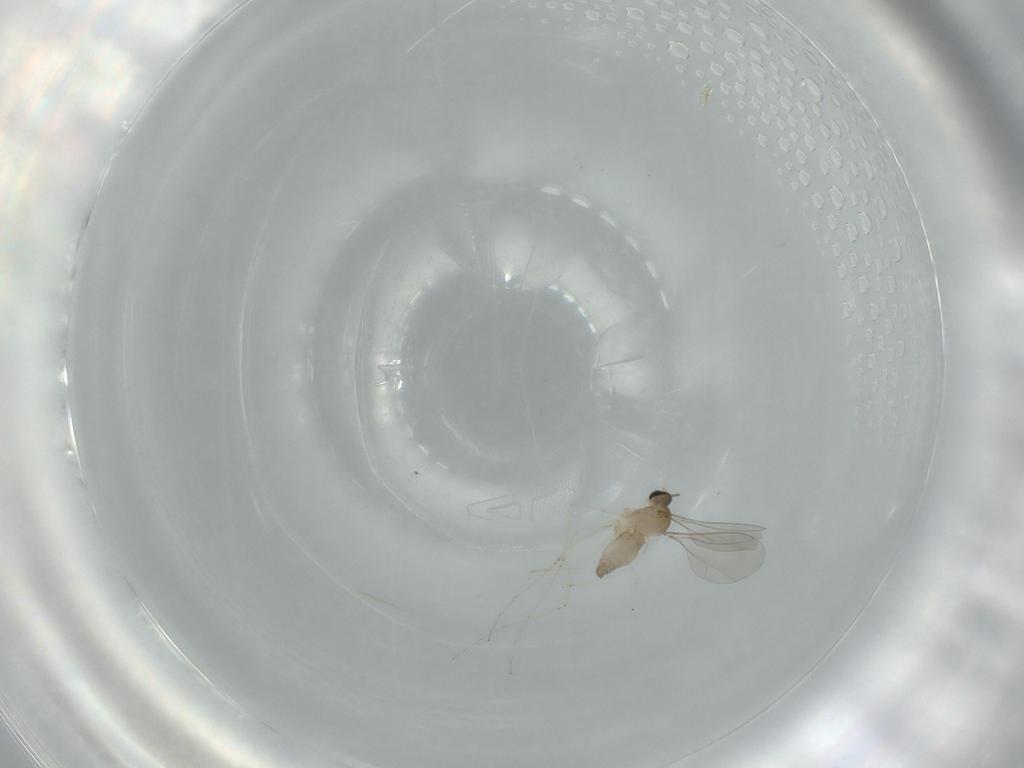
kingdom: Animalia
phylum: Arthropoda
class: Insecta
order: Diptera
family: Cecidomyiidae
